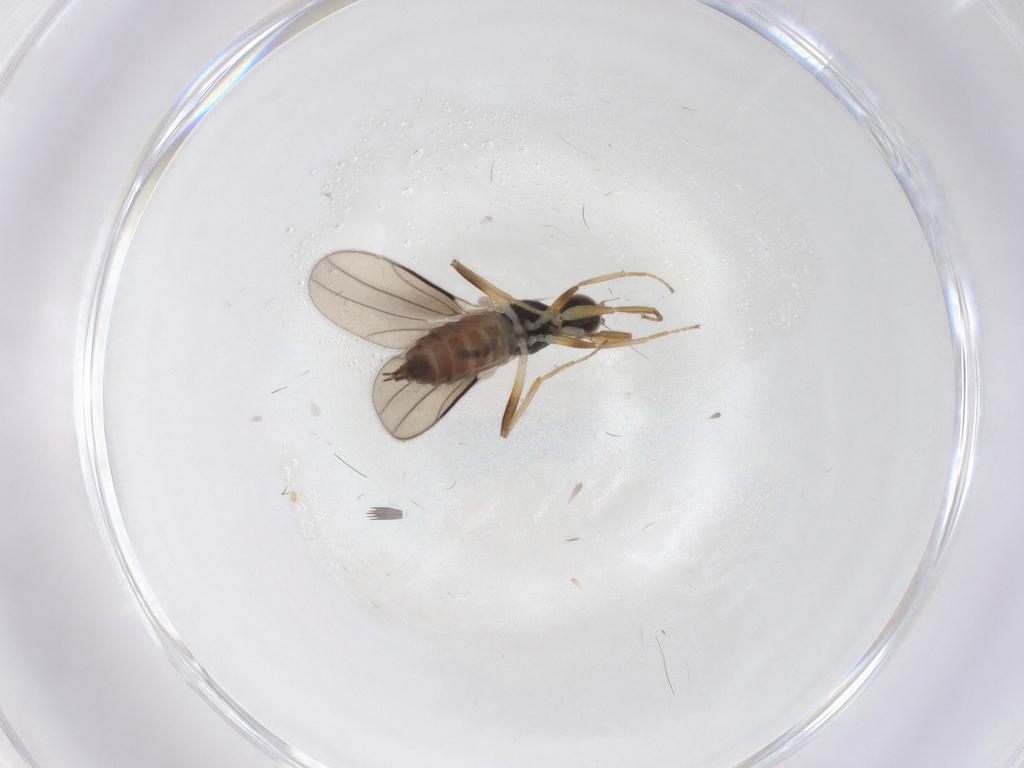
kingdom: Animalia
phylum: Arthropoda
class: Insecta
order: Diptera
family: Hybotidae
